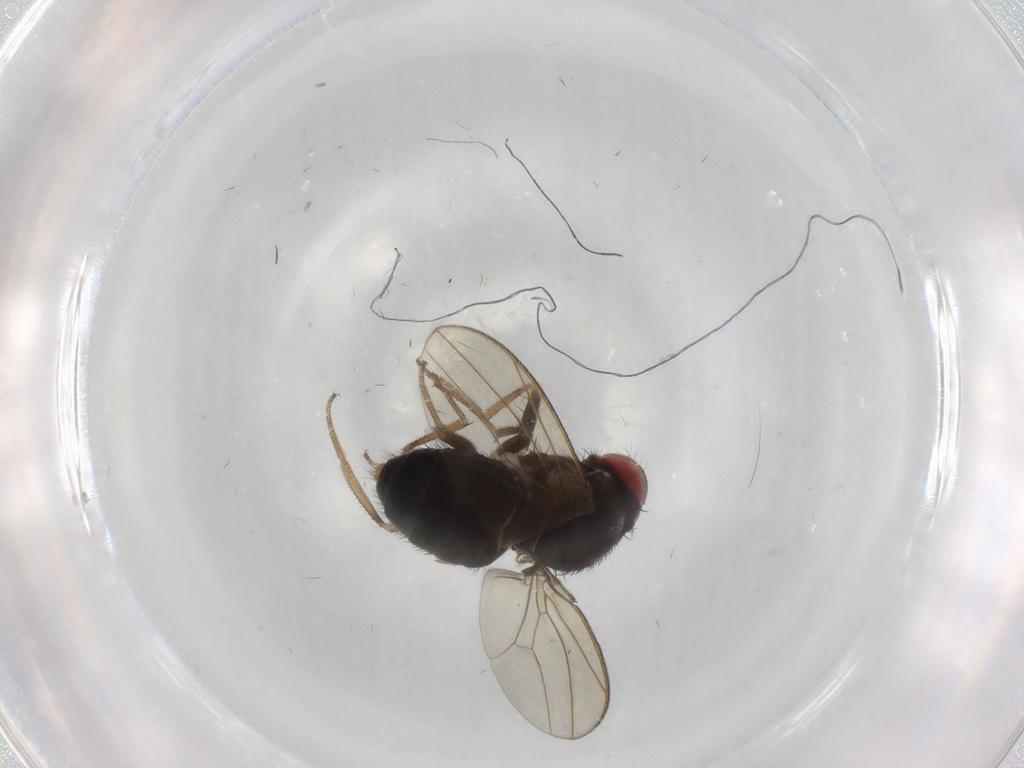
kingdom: Animalia
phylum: Arthropoda
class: Insecta
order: Diptera
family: Drosophilidae
